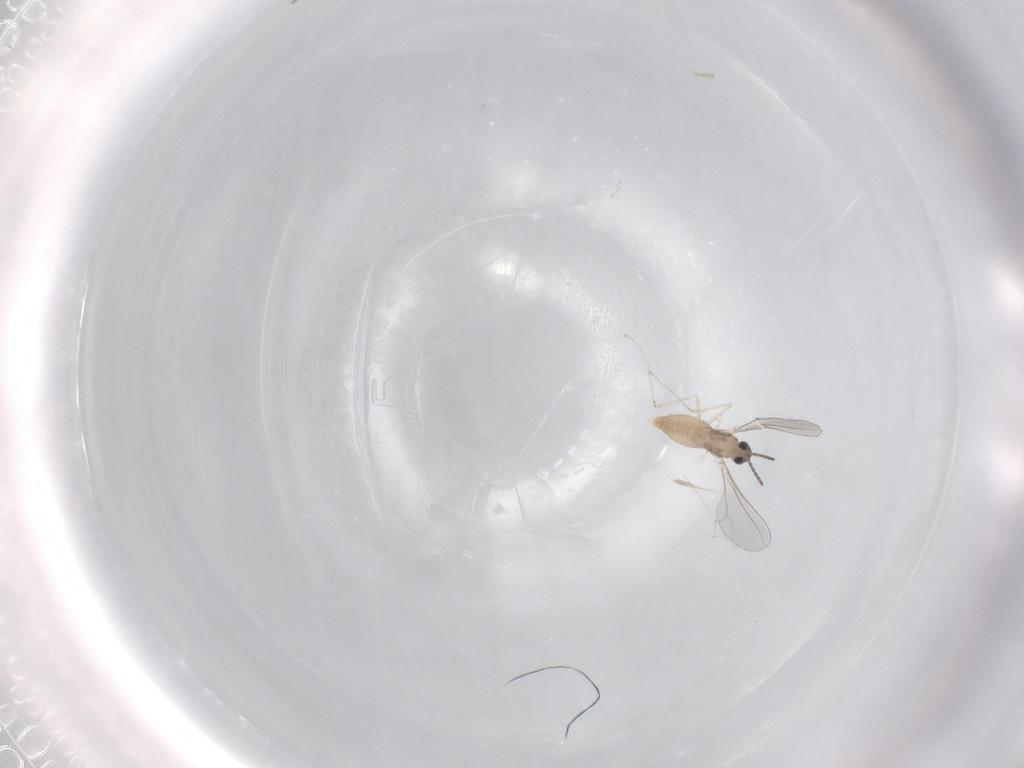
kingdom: Animalia
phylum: Arthropoda
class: Insecta
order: Diptera
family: Cecidomyiidae
